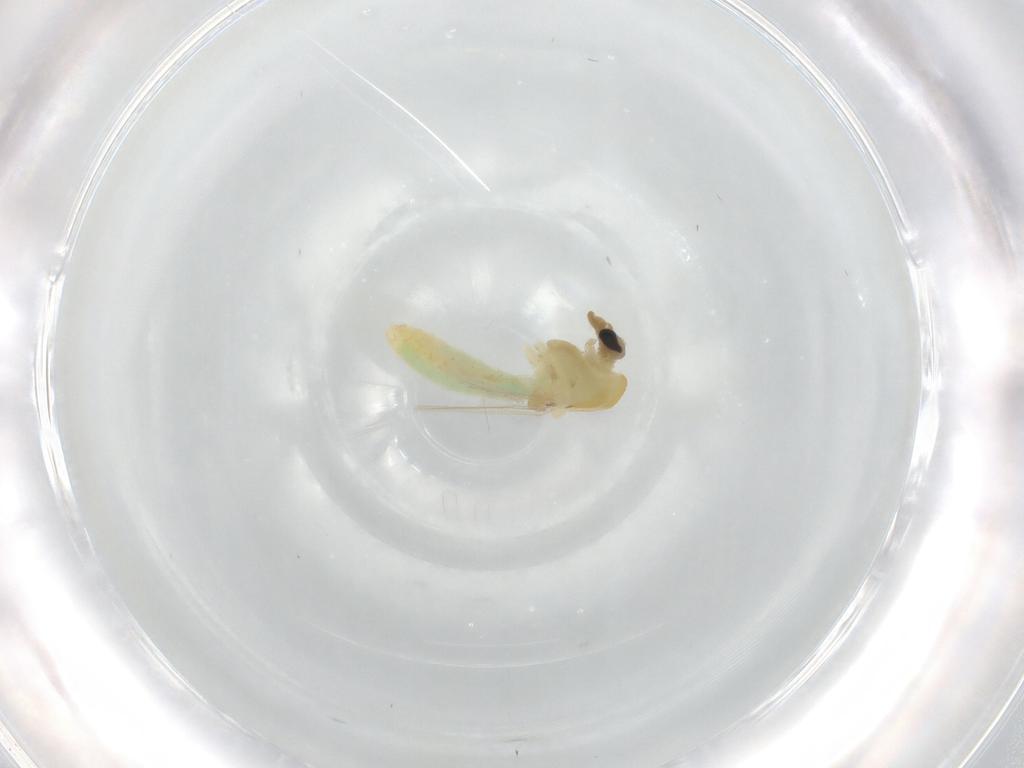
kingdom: Animalia
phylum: Arthropoda
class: Insecta
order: Diptera
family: Chironomidae
